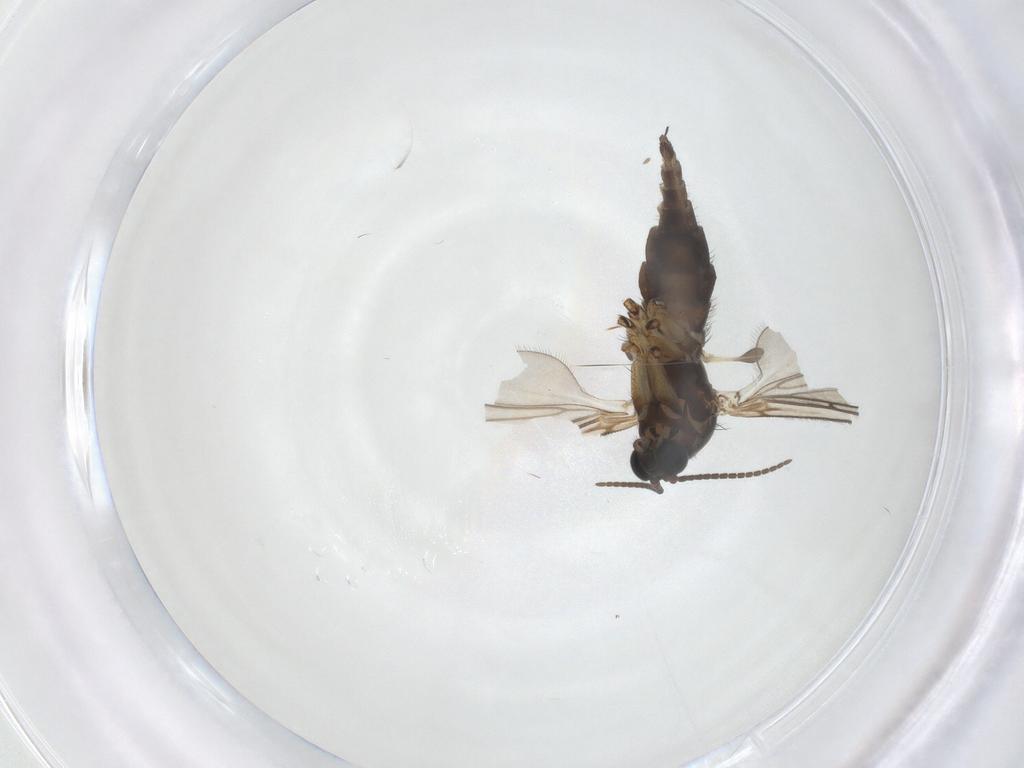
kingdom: Animalia
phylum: Arthropoda
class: Insecta
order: Diptera
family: Sciaridae
